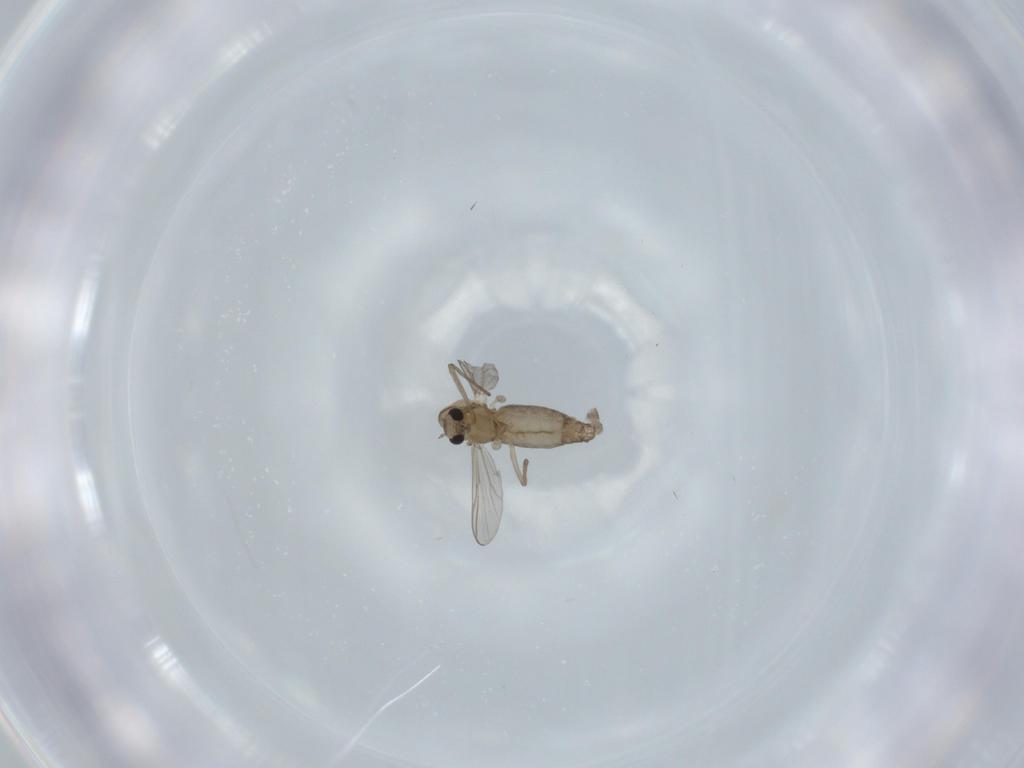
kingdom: Animalia
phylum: Arthropoda
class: Insecta
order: Diptera
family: Chironomidae
